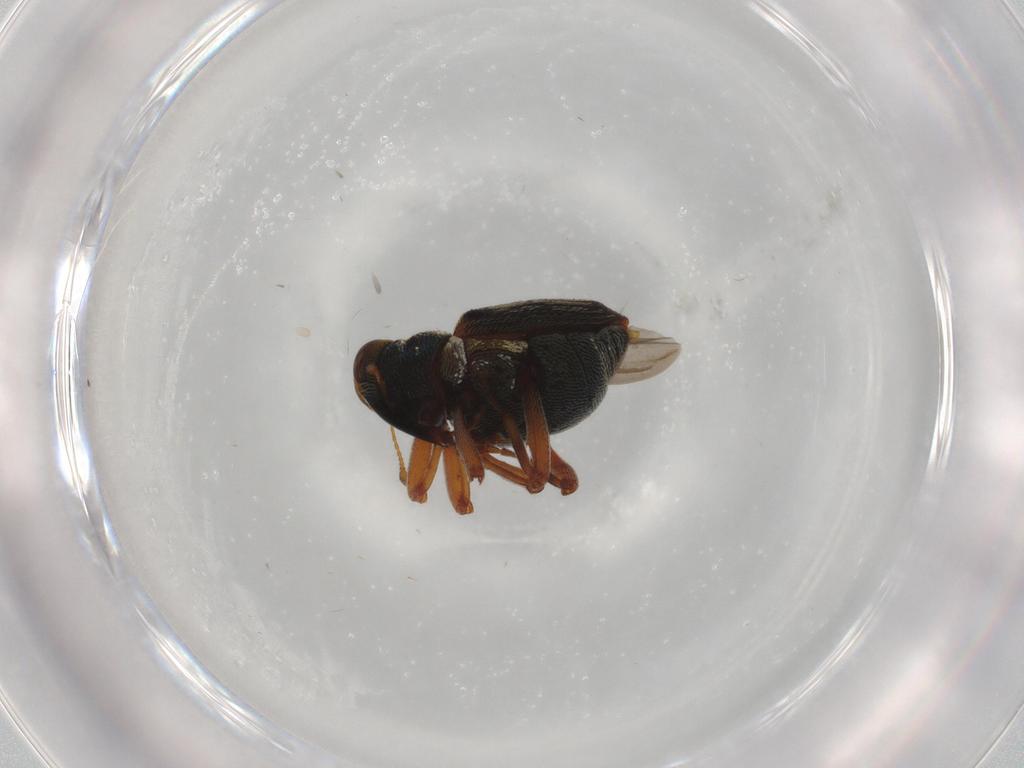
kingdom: Animalia
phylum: Arthropoda
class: Insecta
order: Coleoptera
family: Curculionidae
